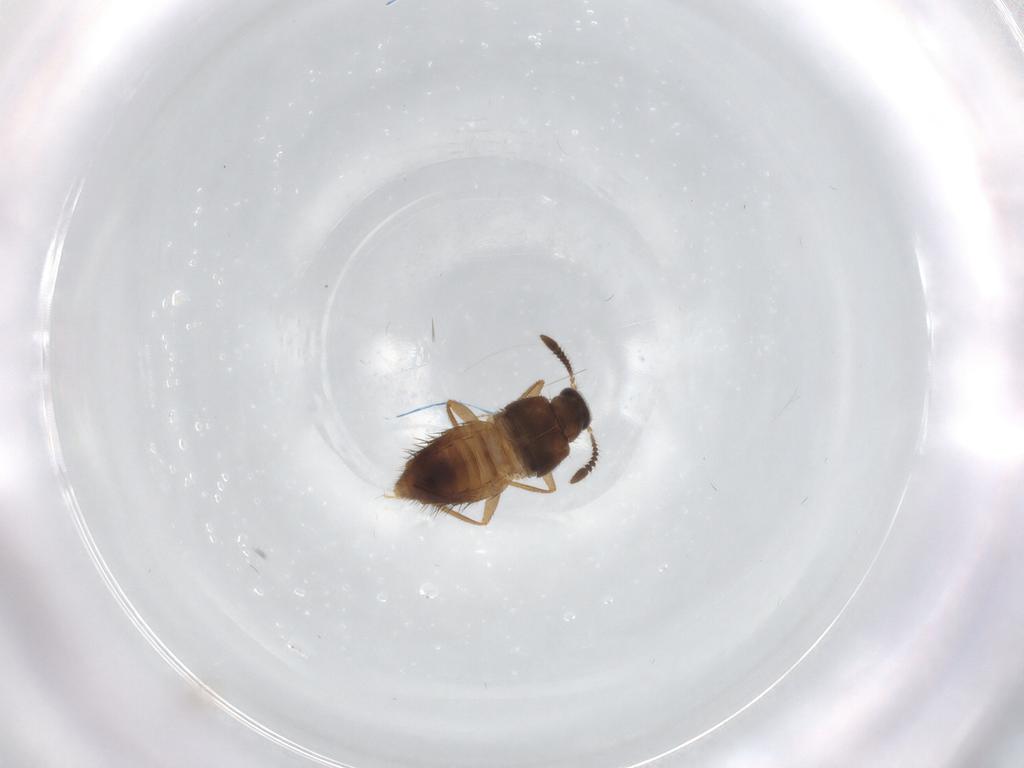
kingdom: Animalia
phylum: Arthropoda
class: Insecta
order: Coleoptera
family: Staphylinidae
